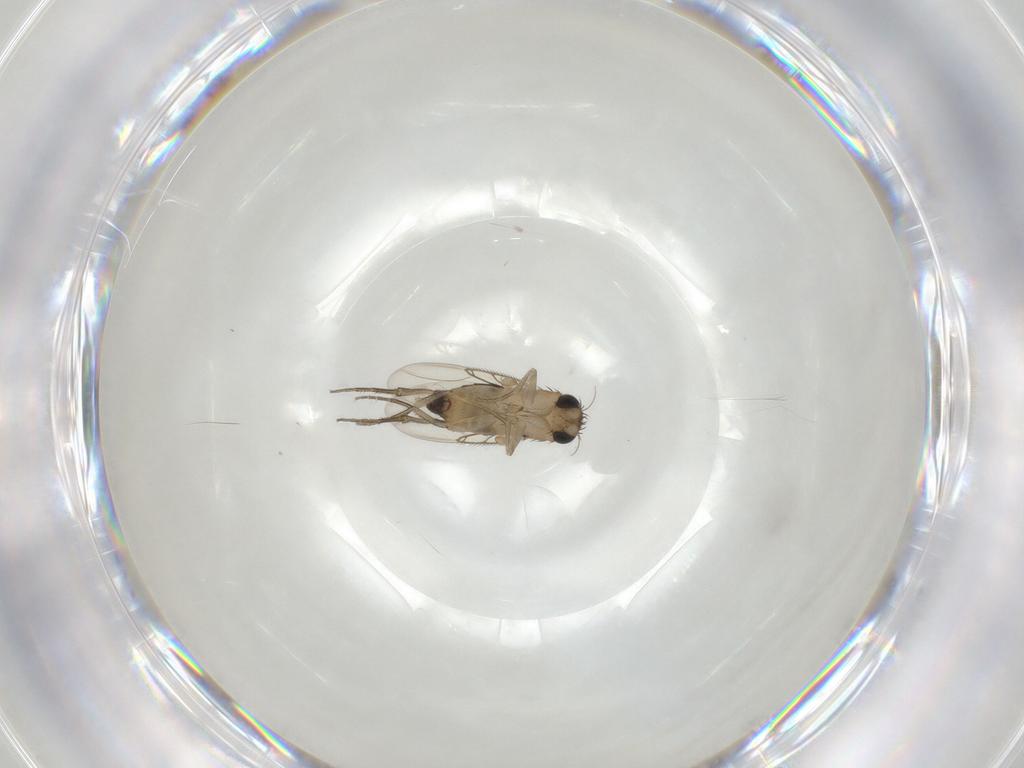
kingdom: Animalia
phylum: Arthropoda
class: Insecta
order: Diptera
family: Phoridae
